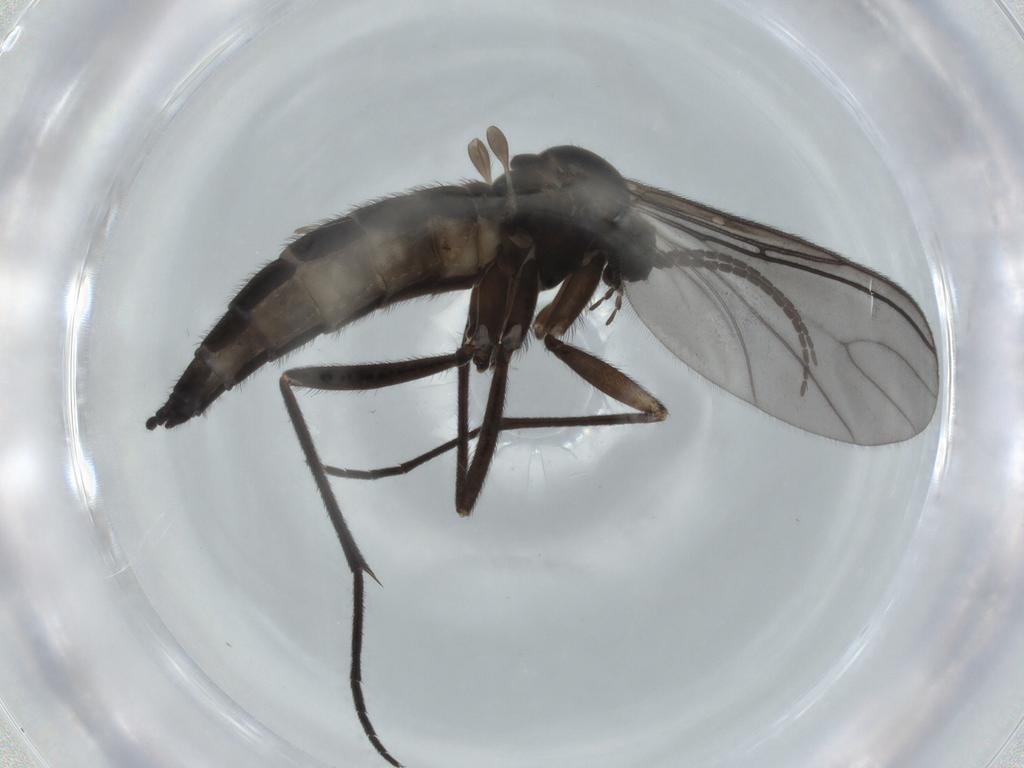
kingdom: Animalia
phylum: Arthropoda
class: Insecta
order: Diptera
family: Sciaridae
